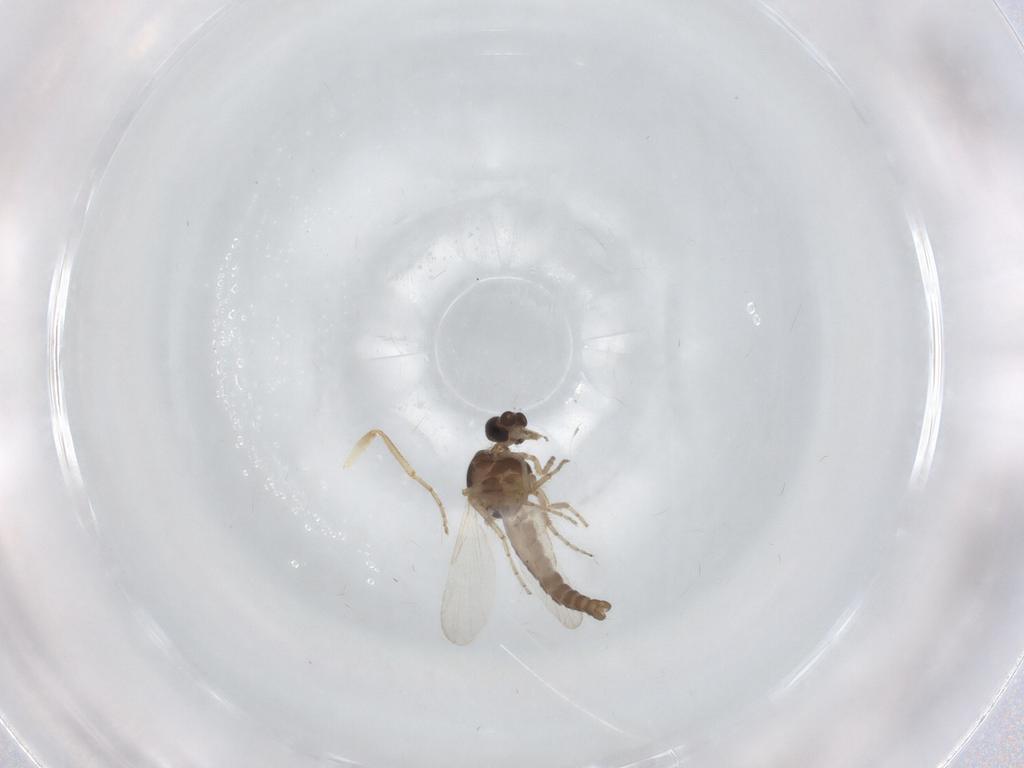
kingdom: Animalia
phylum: Arthropoda
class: Insecta
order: Diptera
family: Ceratopogonidae
